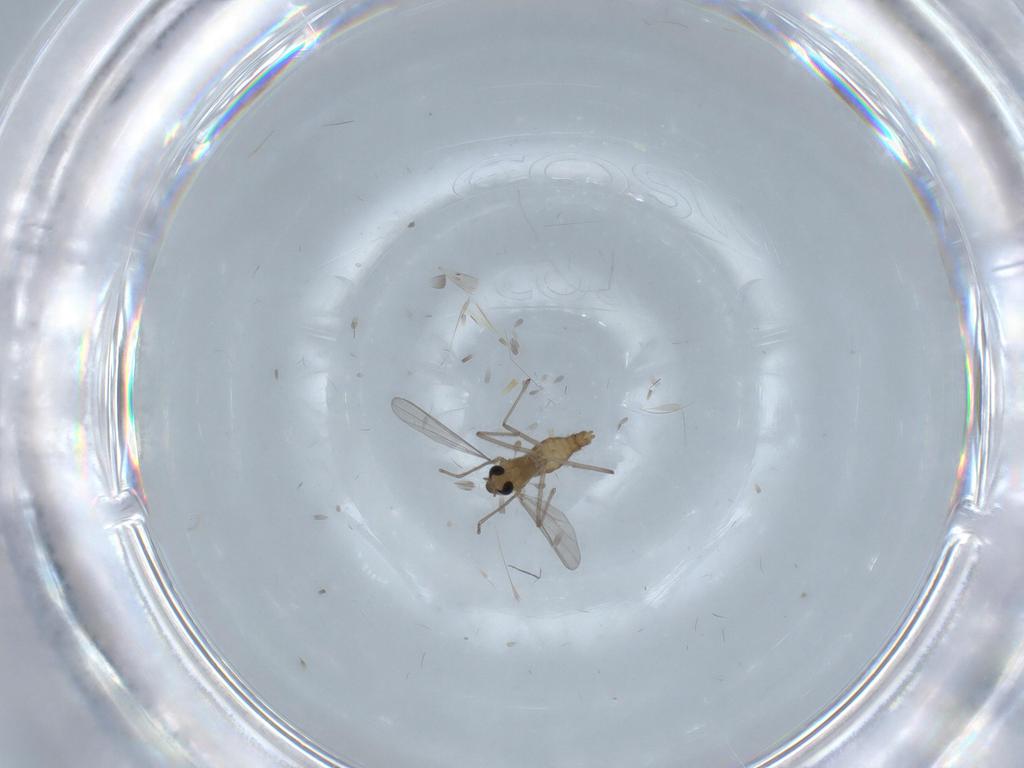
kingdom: Animalia
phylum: Arthropoda
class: Insecta
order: Diptera
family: Chironomidae
